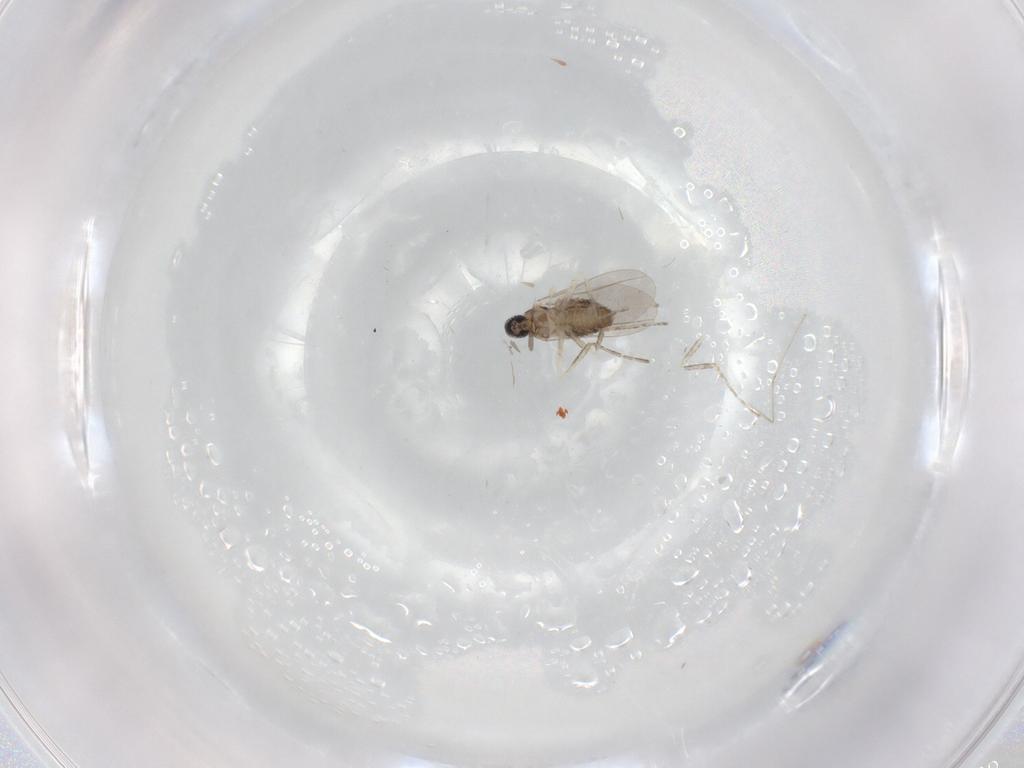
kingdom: Animalia
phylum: Arthropoda
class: Insecta
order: Diptera
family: Cecidomyiidae
